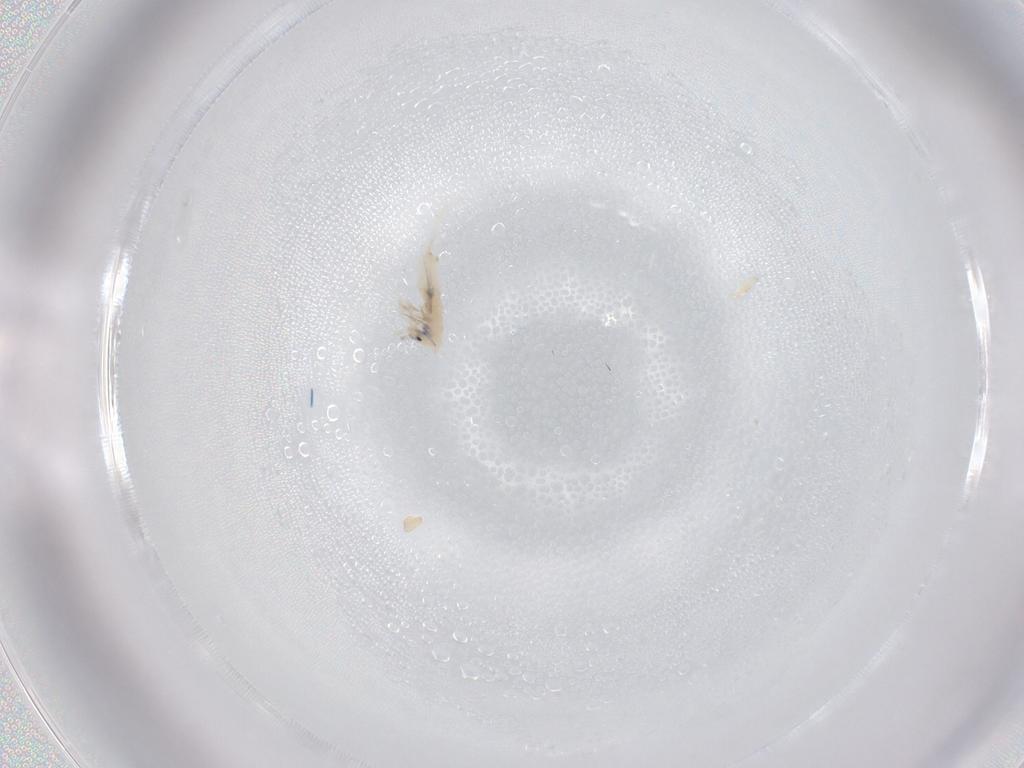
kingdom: Animalia
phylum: Arthropoda
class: Collembola
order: Entomobryomorpha
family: Entomobryidae
